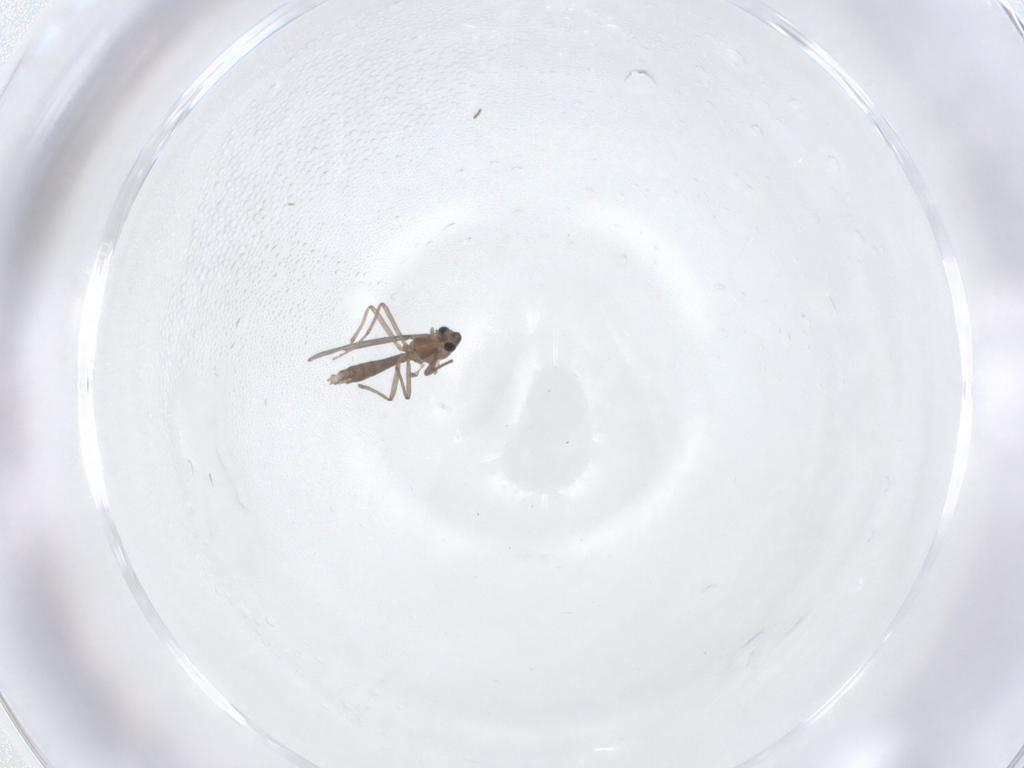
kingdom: Animalia
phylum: Arthropoda
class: Insecta
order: Diptera
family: Chironomidae
